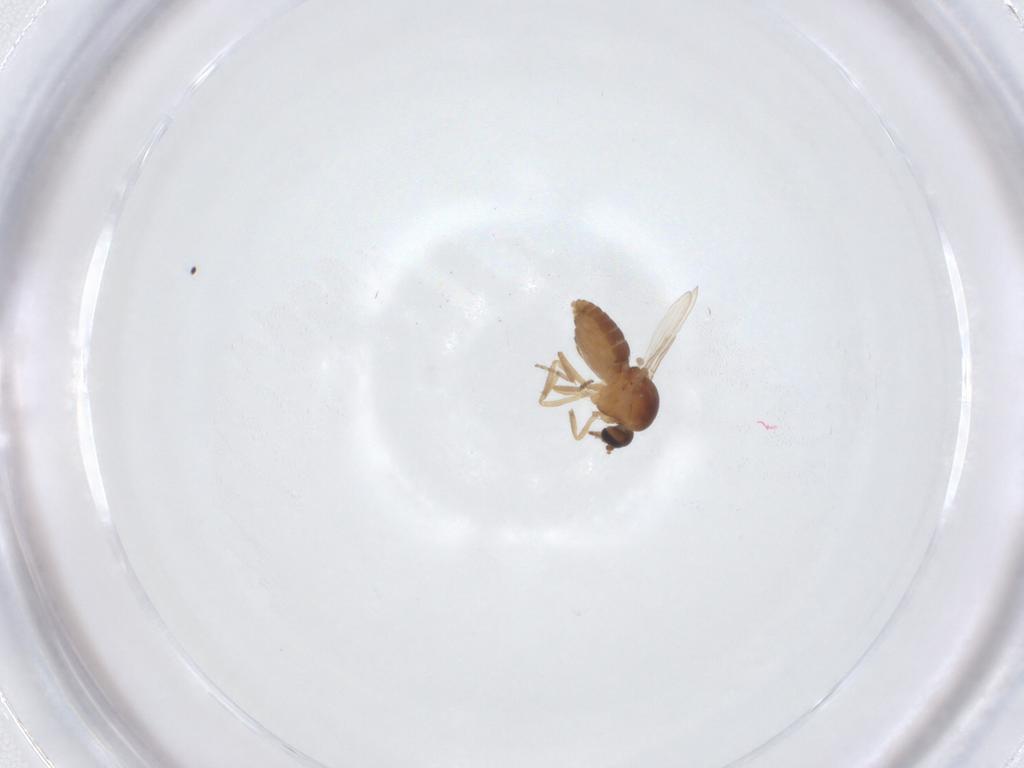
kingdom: Animalia
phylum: Arthropoda
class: Insecta
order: Diptera
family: Ceratopogonidae
